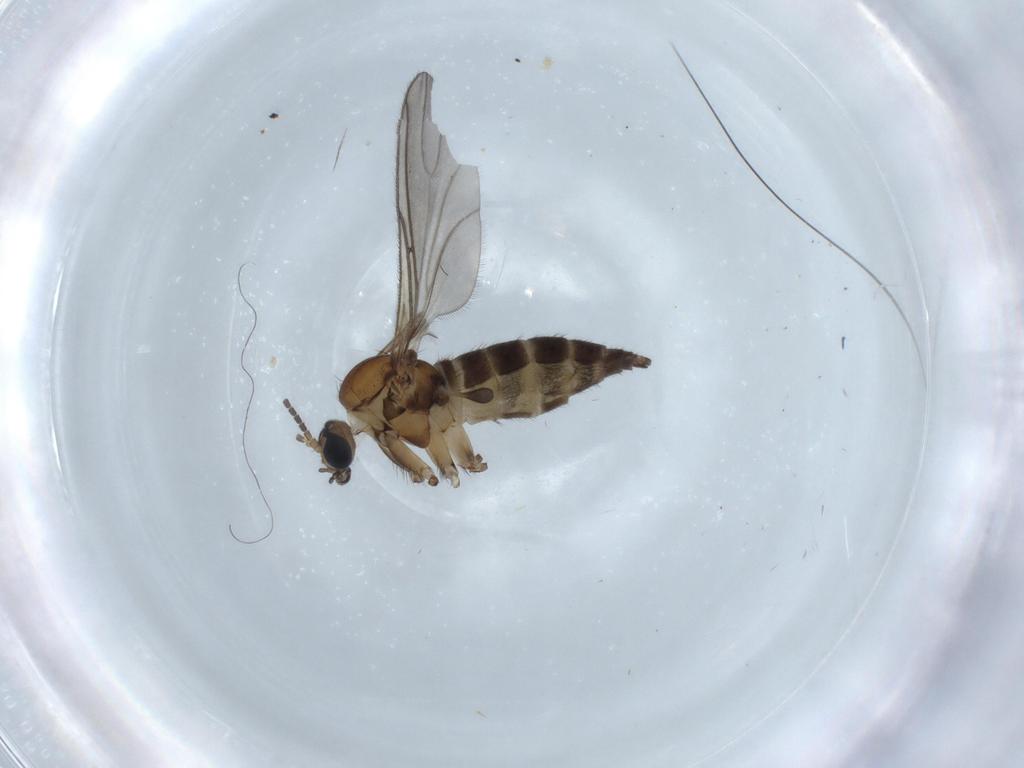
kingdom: Animalia
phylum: Arthropoda
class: Insecta
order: Diptera
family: Sciaridae
